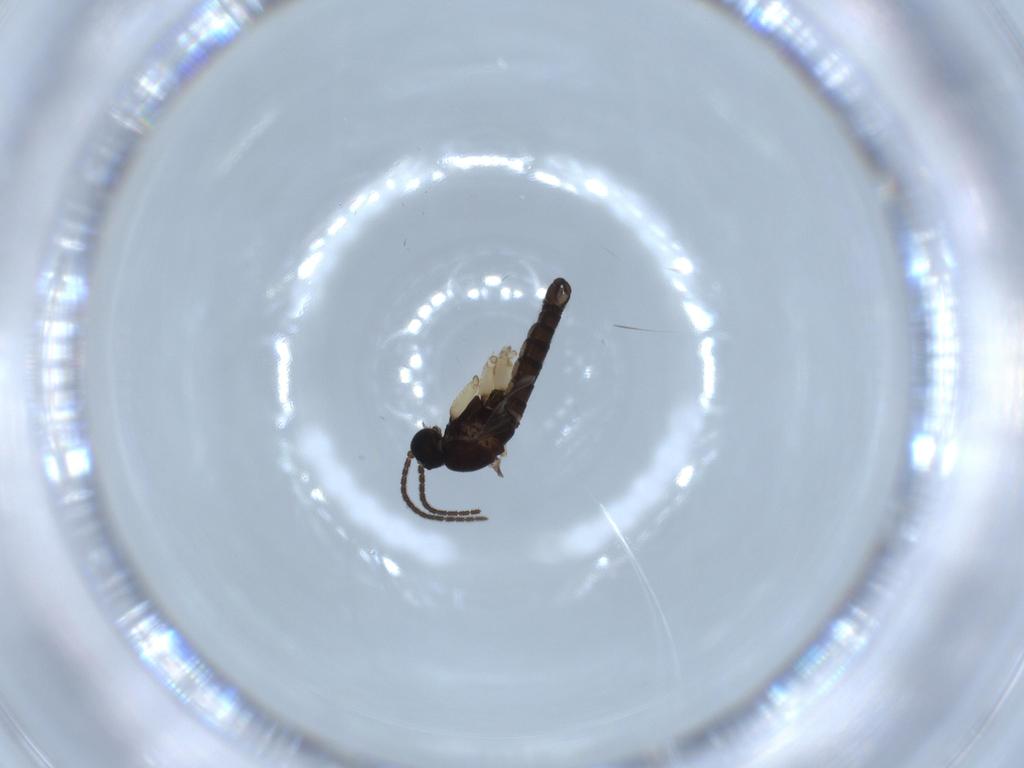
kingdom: Animalia
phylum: Arthropoda
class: Insecta
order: Diptera
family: Sciaridae
